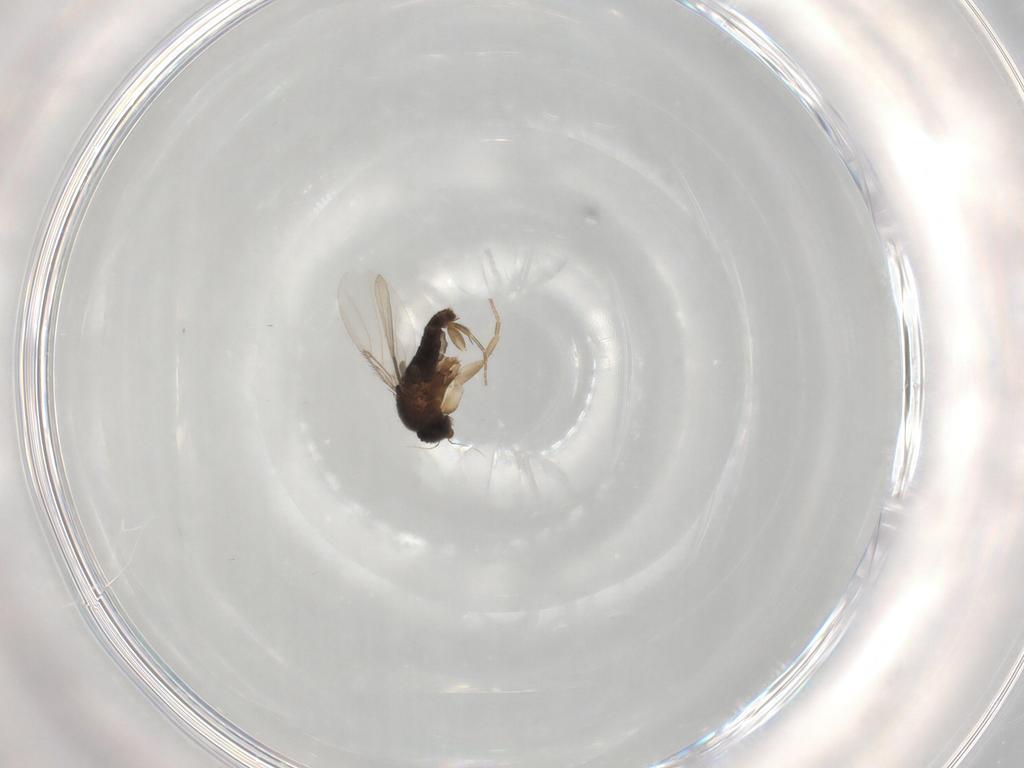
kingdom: Animalia
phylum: Arthropoda
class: Insecta
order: Diptera
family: Phoridae
